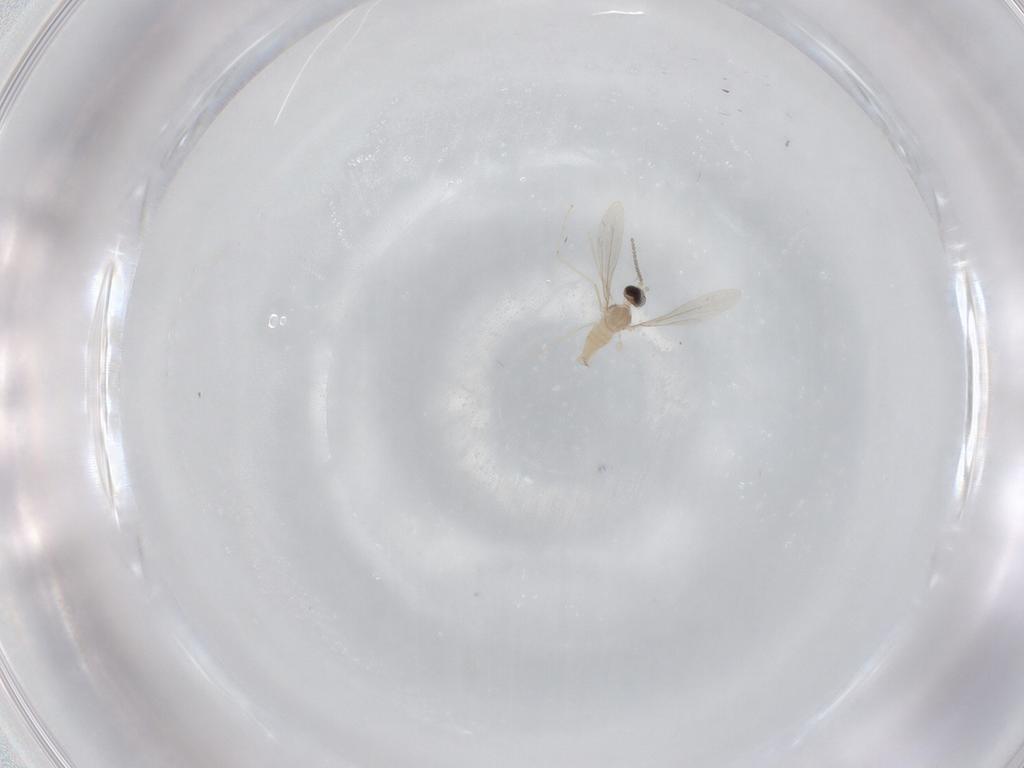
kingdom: Animalia
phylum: Arthropoda
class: Insecta
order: Diptera
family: Cecidomyiidae
